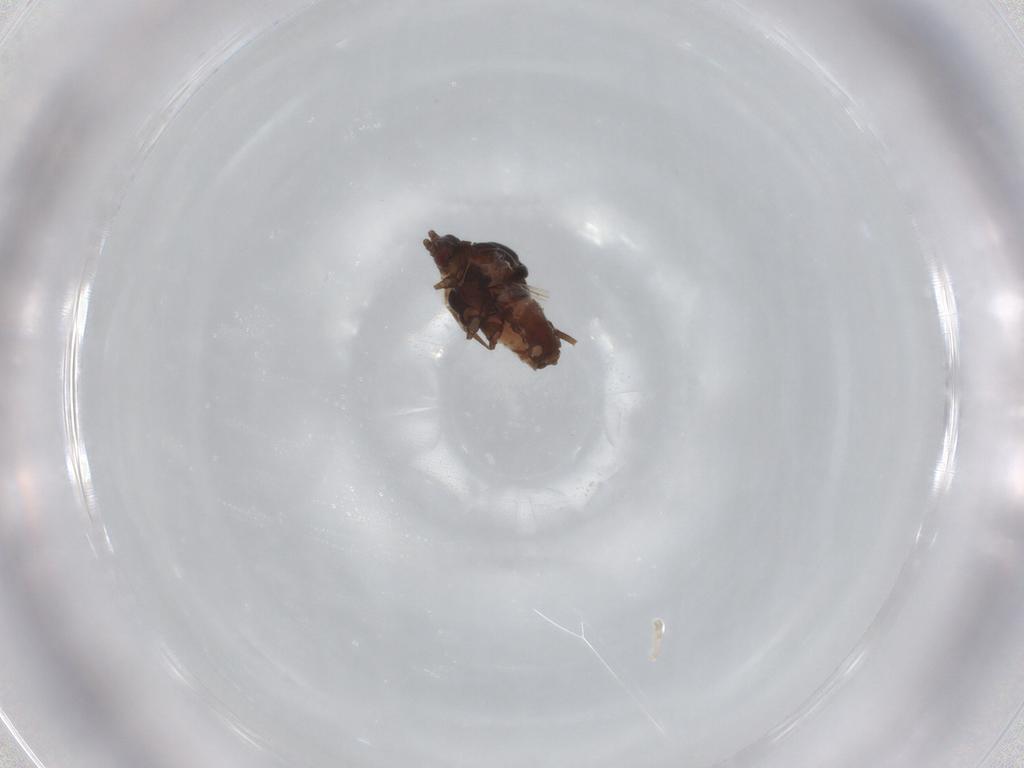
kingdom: Animalia
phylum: Arthropoda
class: Insecta
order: Hemiptera
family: Aphididae
